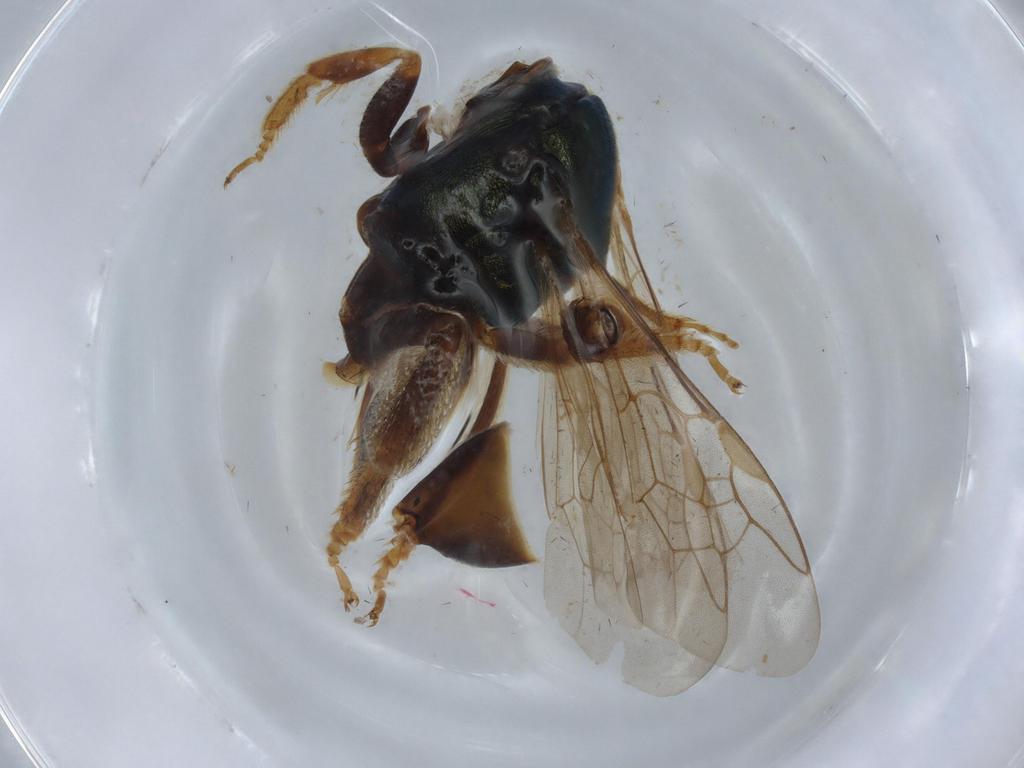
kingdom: Animalia
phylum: Arthropoda
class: Insecta
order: Hymenoptera
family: Halictidae
